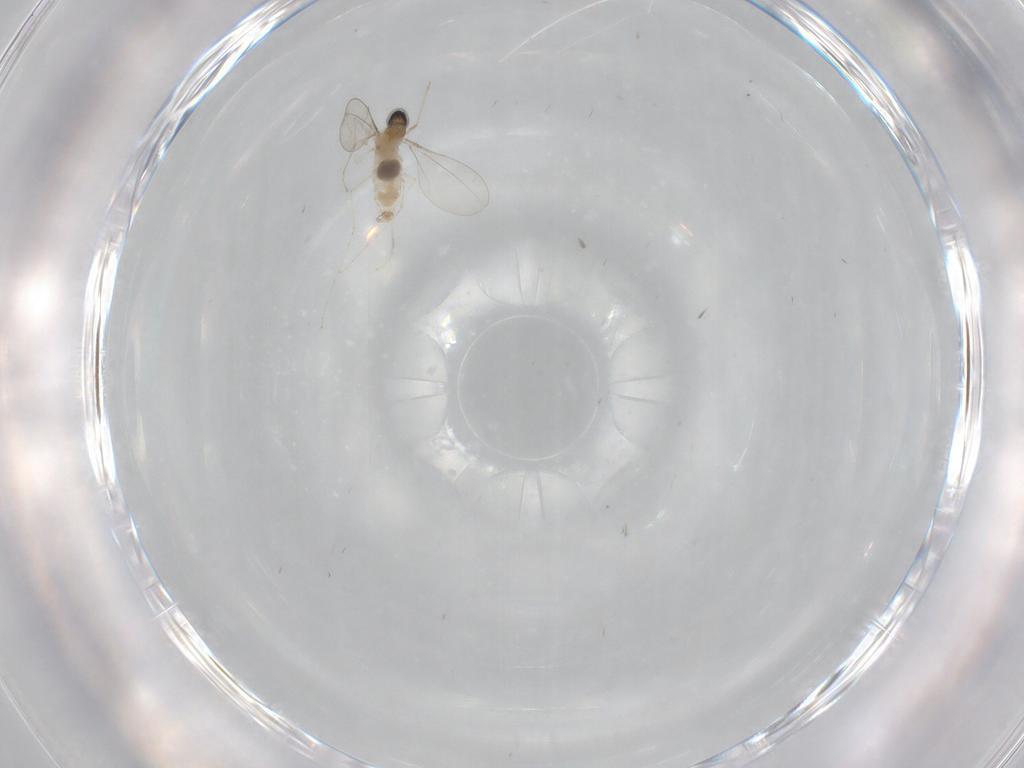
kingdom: Animalia
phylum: Arthropoda
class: Insecta
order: Diptera
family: Cecidomyiidae
